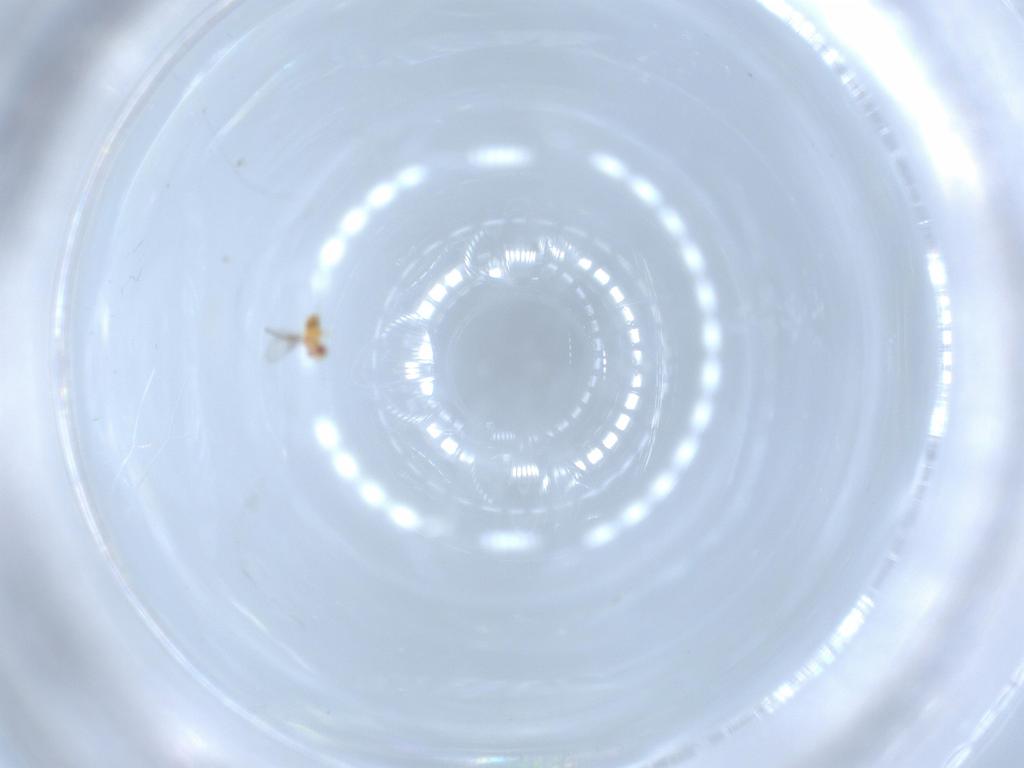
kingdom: Animalia
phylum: Arthropoda
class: Insecta
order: Hymenoptera
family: Trichogrammatidae
